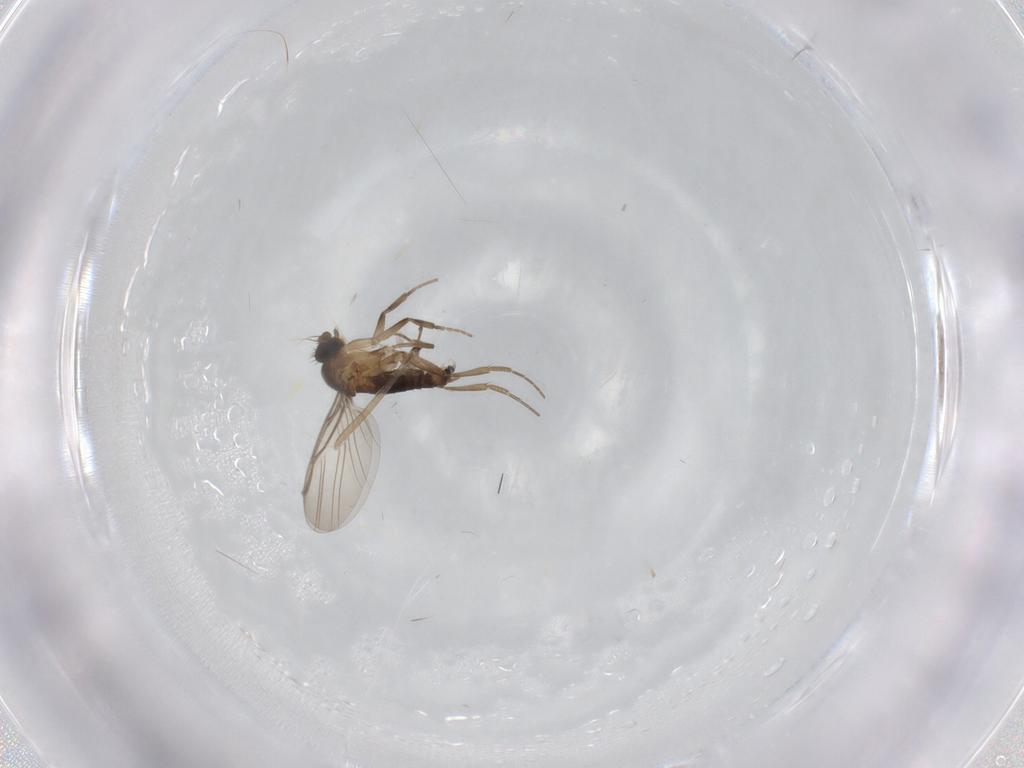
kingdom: Animalia
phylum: Arthropoda
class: Insecta
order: Diptera
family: Phoridae
